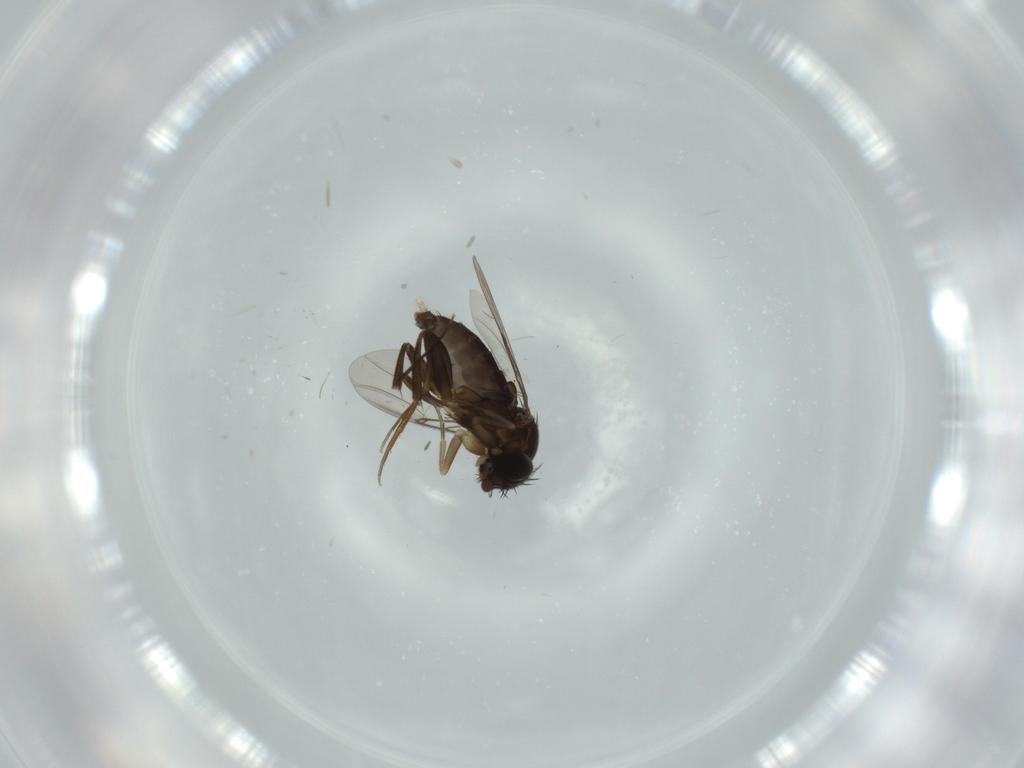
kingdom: Animalia
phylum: Arthropoda
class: Insecta
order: Diptera
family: Phoridae
